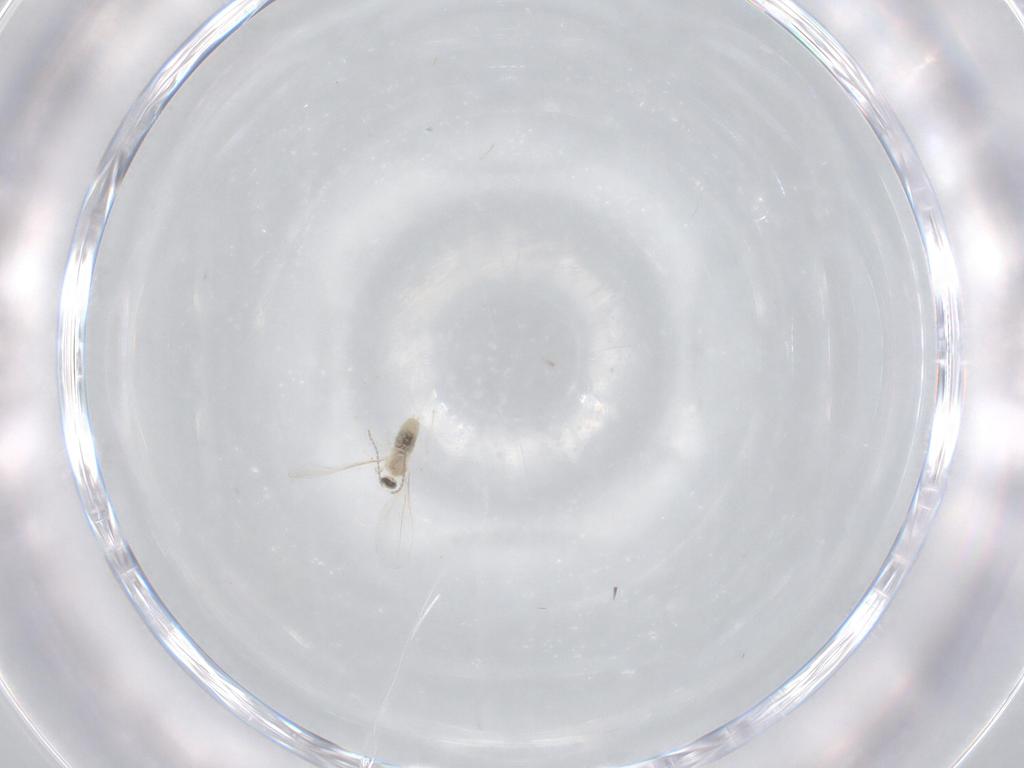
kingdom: Animalia
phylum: Arthropoda
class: Insecta
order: Diptera
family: Cecidomyiidae
